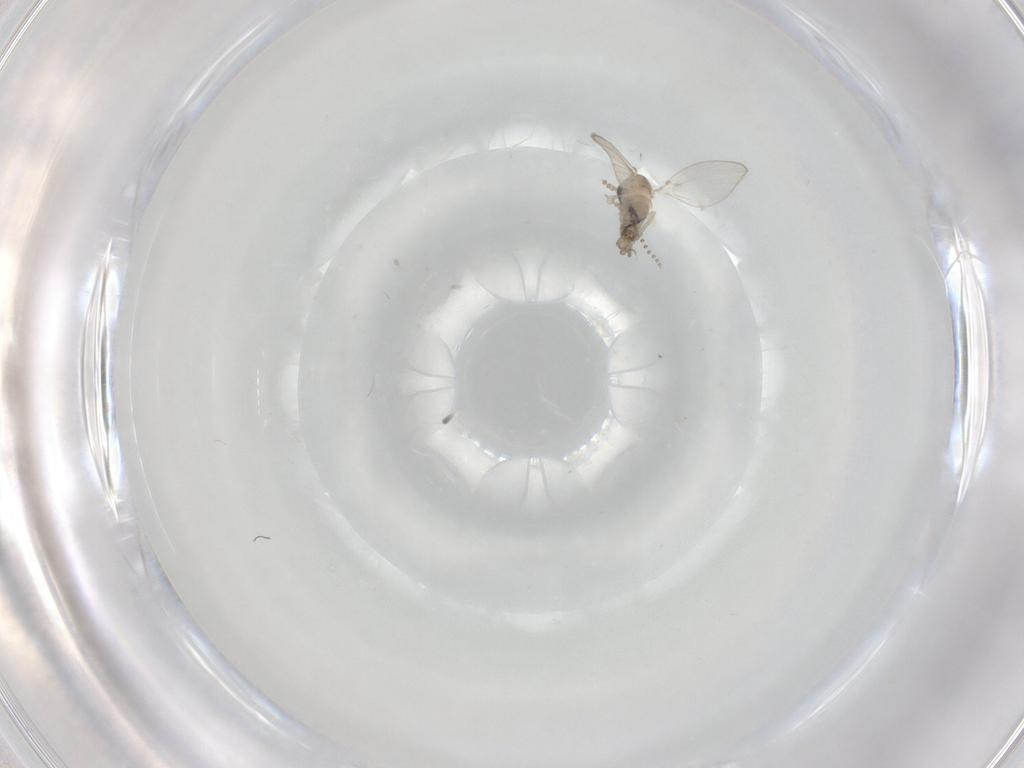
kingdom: Animalia
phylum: Arthropoda
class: Insecta
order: Diptera
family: Psychodidae
